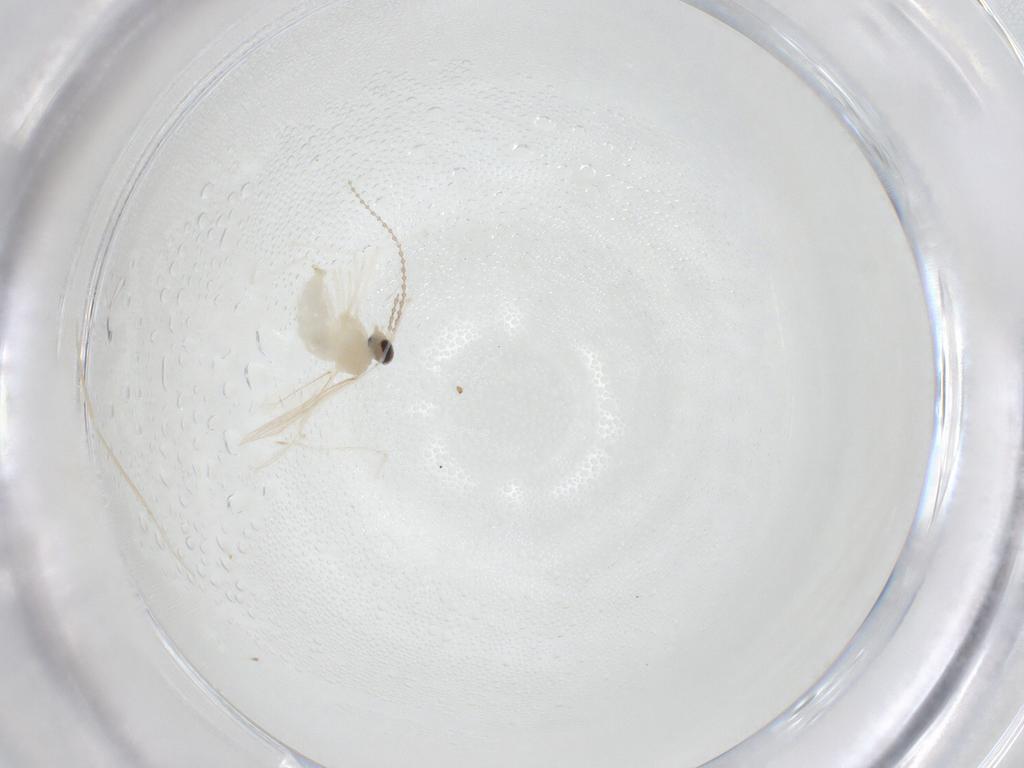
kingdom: Animalia
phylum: Arthropoda
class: Insecta
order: Diptera
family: Cecidomyiidae
